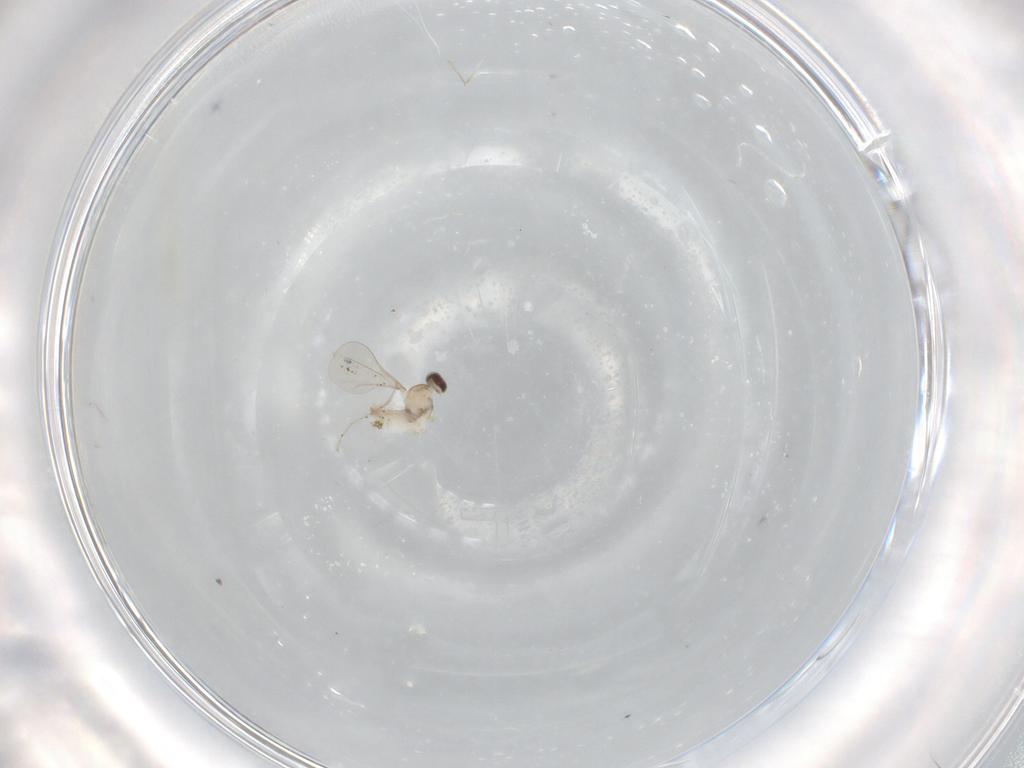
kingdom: Animalia
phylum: Arthropoda
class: Insecta
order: Diptera
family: Cecidomyiidae
